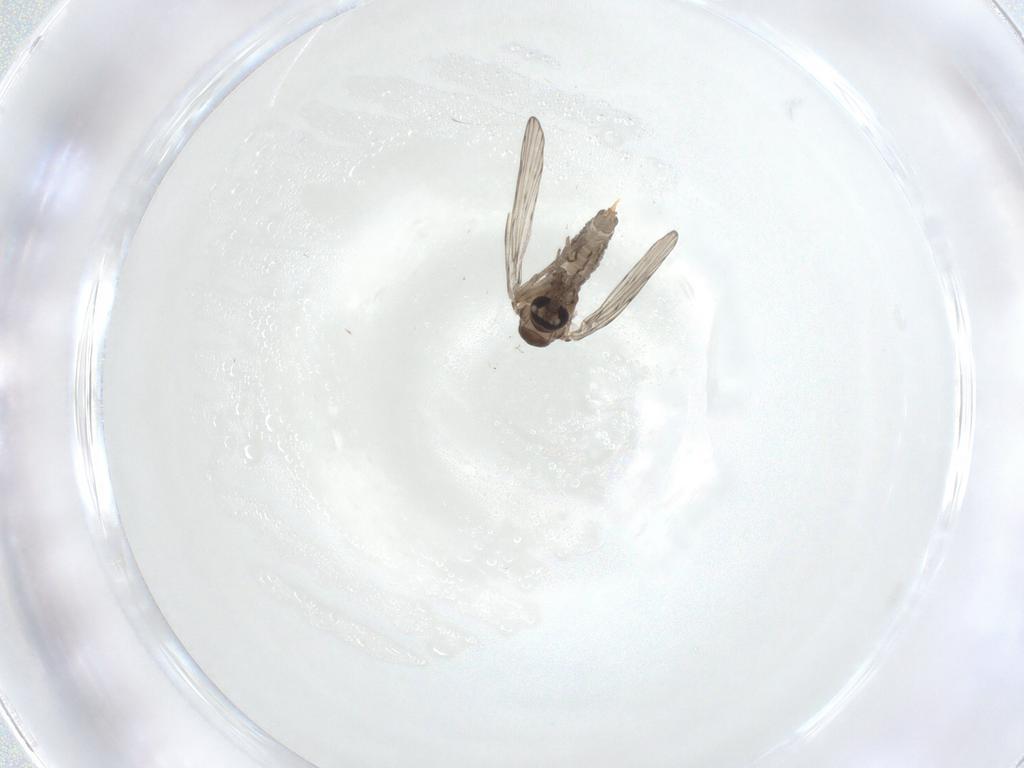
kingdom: Animalia
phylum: Arthropoda
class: Insecta
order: Diptera
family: Psychodidae
